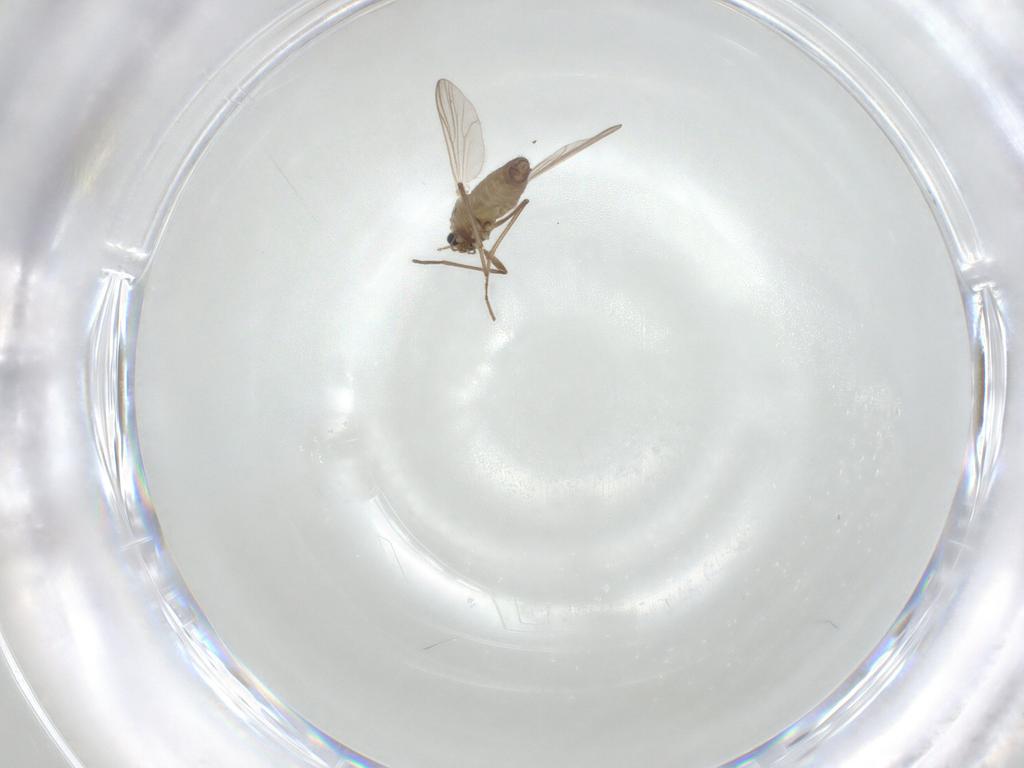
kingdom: Animalia
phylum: Arthropoda
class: Insecta
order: Diptera
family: Chironomidae
